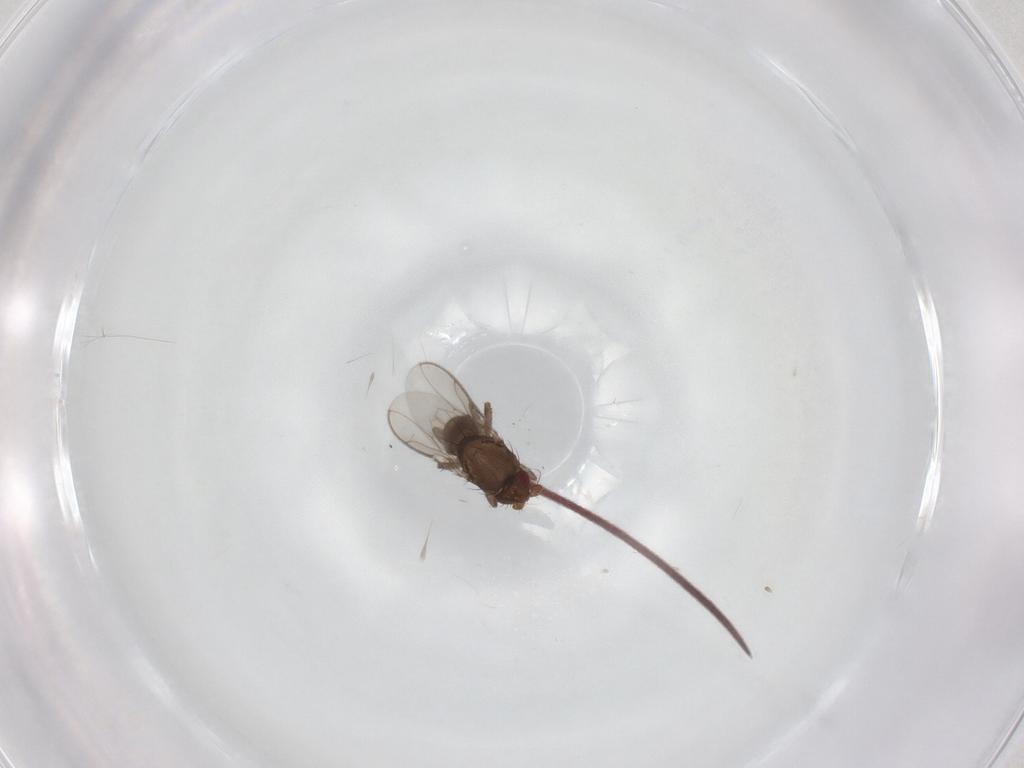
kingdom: Animalia
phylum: Arthropoda
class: Insecta
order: Diptera
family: Sphaeroceridae
